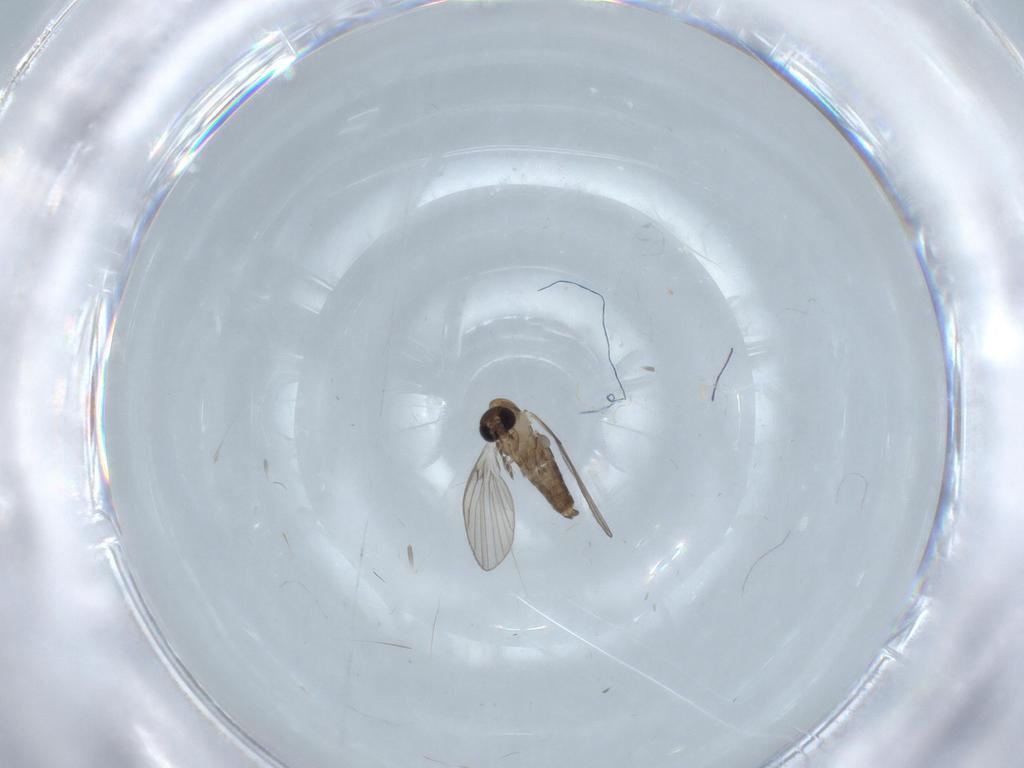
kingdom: Animalia
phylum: Arthropoda
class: Insecta
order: Diptera
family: Psychodidae
